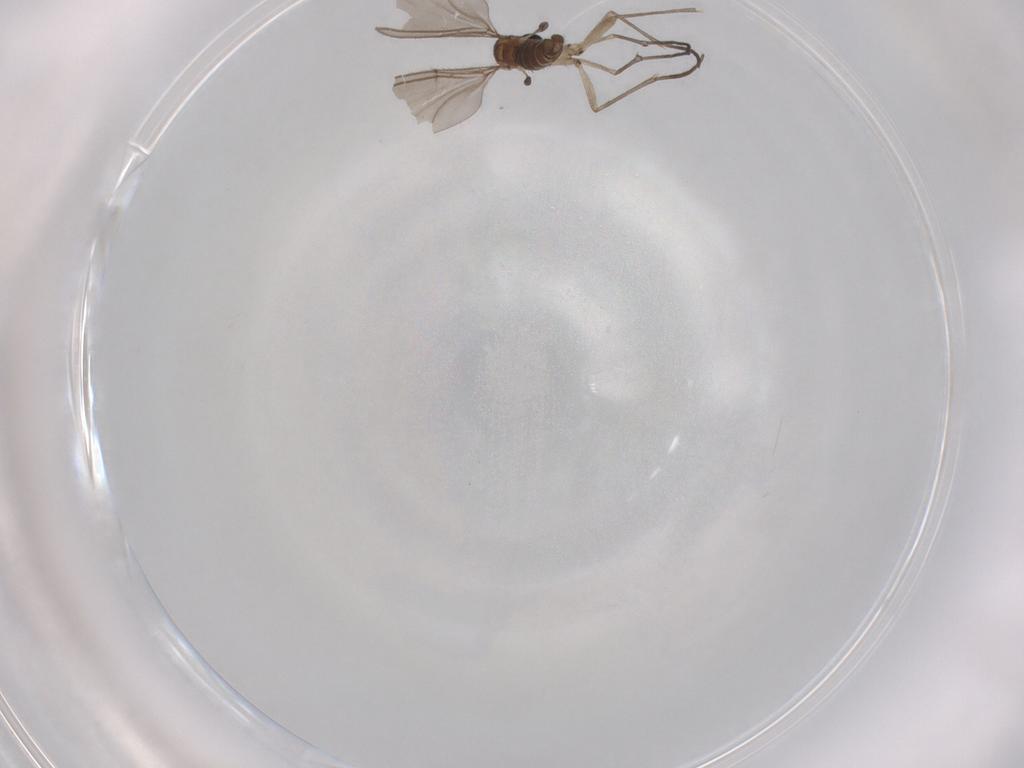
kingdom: Animalia
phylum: Arthropoda
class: Insecta
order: Diptera
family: Sciaridae
